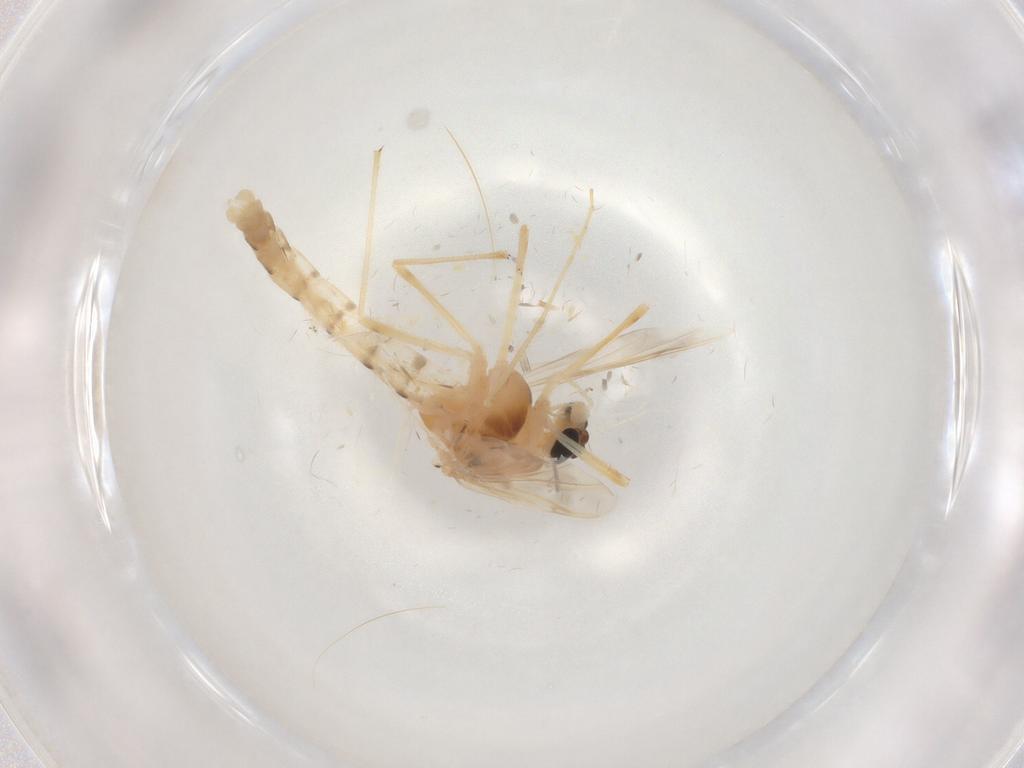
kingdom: Animalia
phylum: Arthropoda
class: Insecta
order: Diptera
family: Chironomidae
